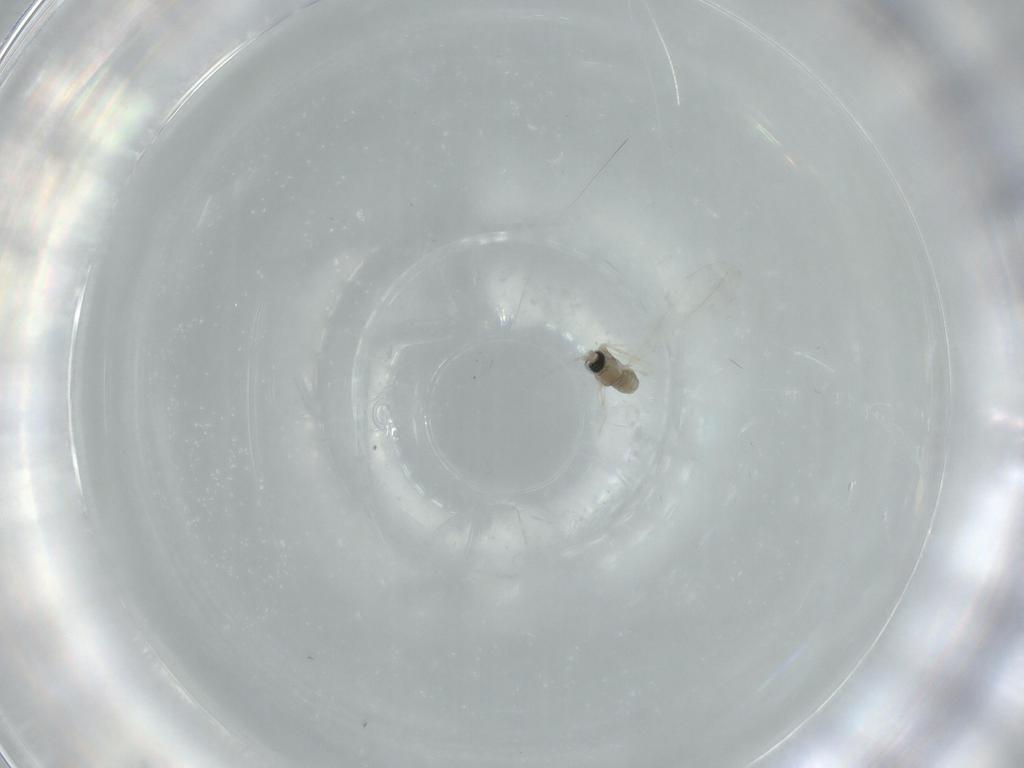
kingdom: Animalia
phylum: Arthropoda
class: Insecta
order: Diptera
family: Cecidomyiidae
